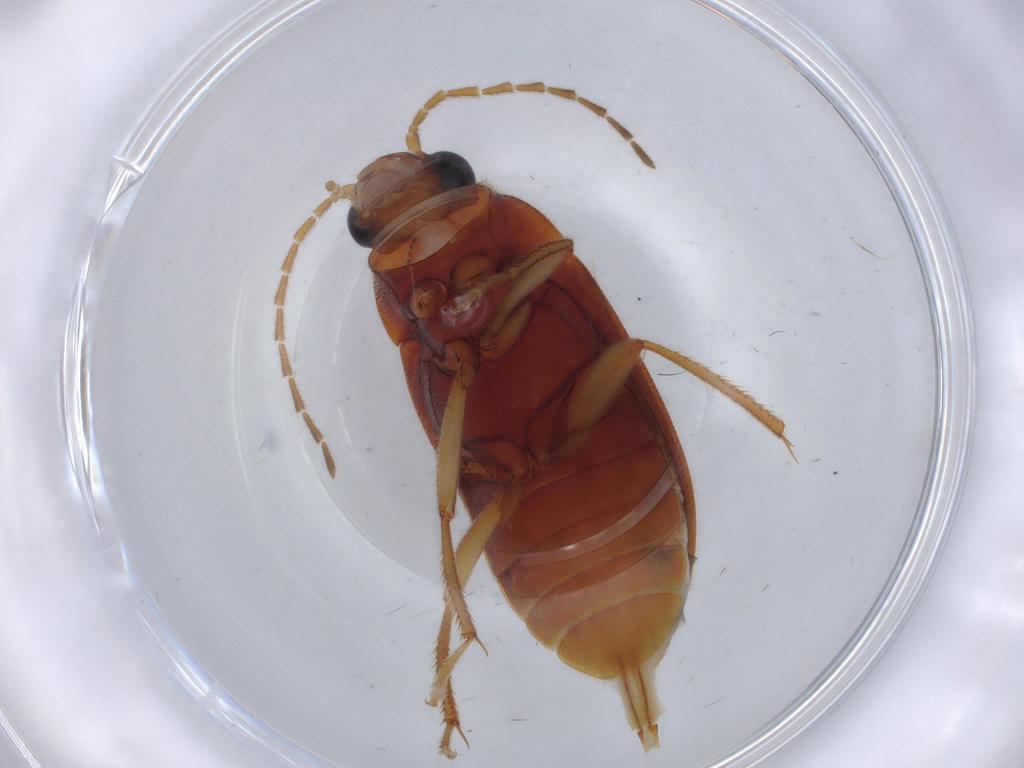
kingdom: Animalia
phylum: Arthropoda
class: Insecta
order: Coleoptera
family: Ptilodactylidae
